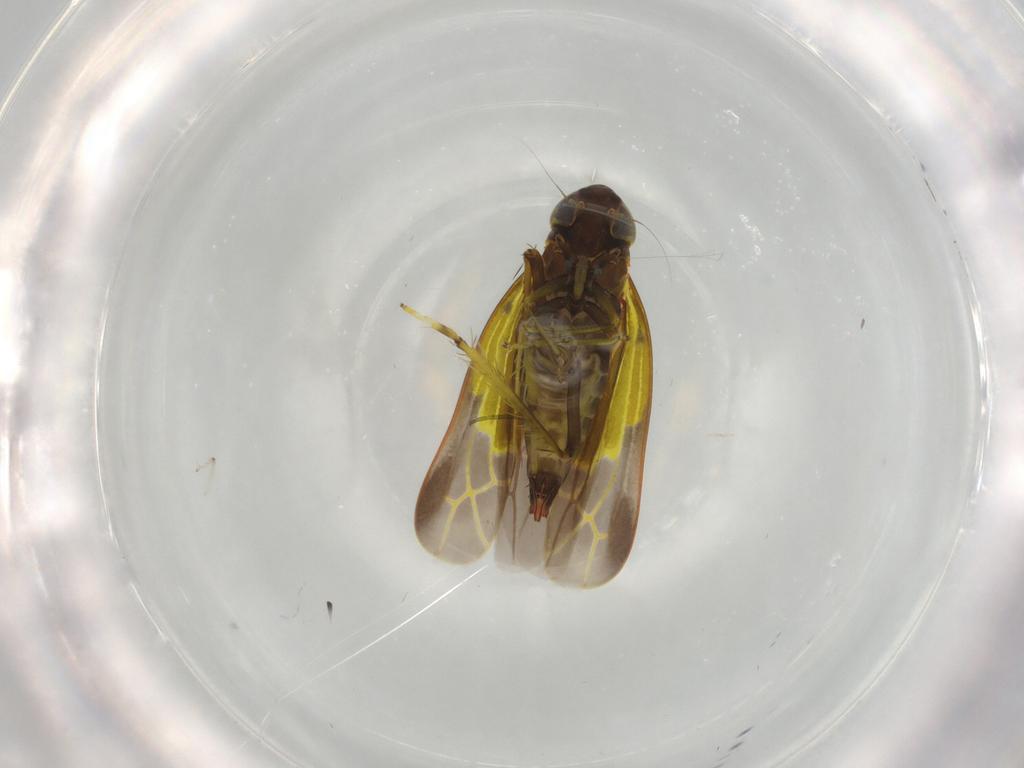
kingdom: Animalia
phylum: Arthropoda
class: Insecta
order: Hemiptera
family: Cicadellidae
